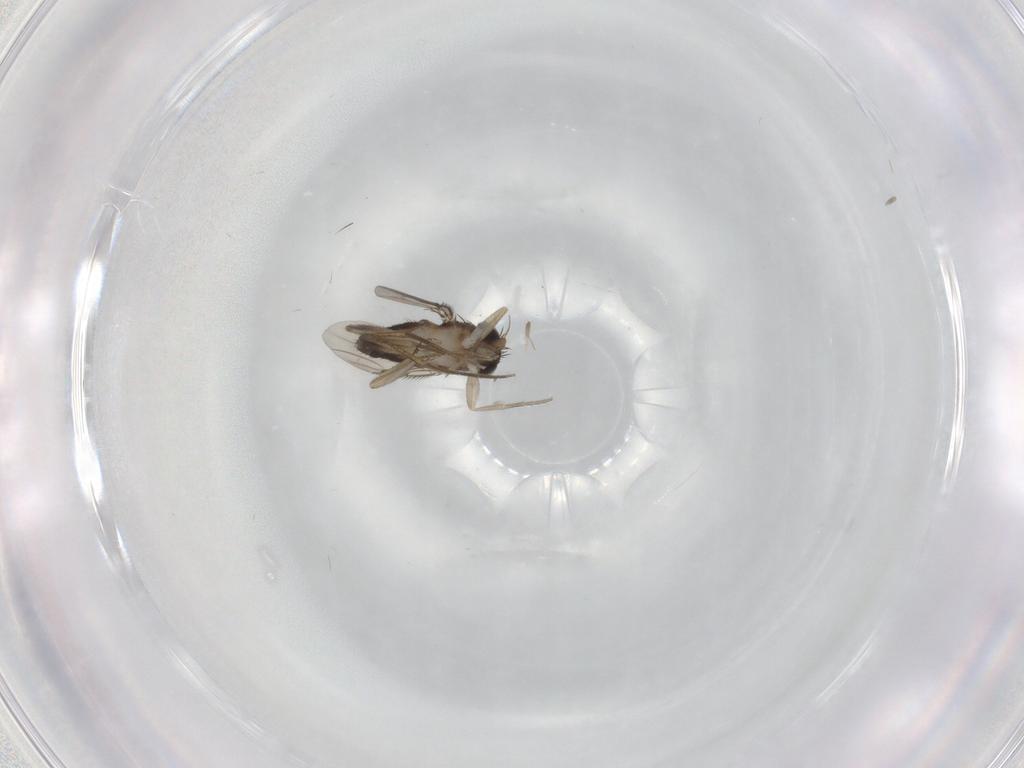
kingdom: Animalia
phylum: Arthropoda
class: Insecta
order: Diptera
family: Phoridae
